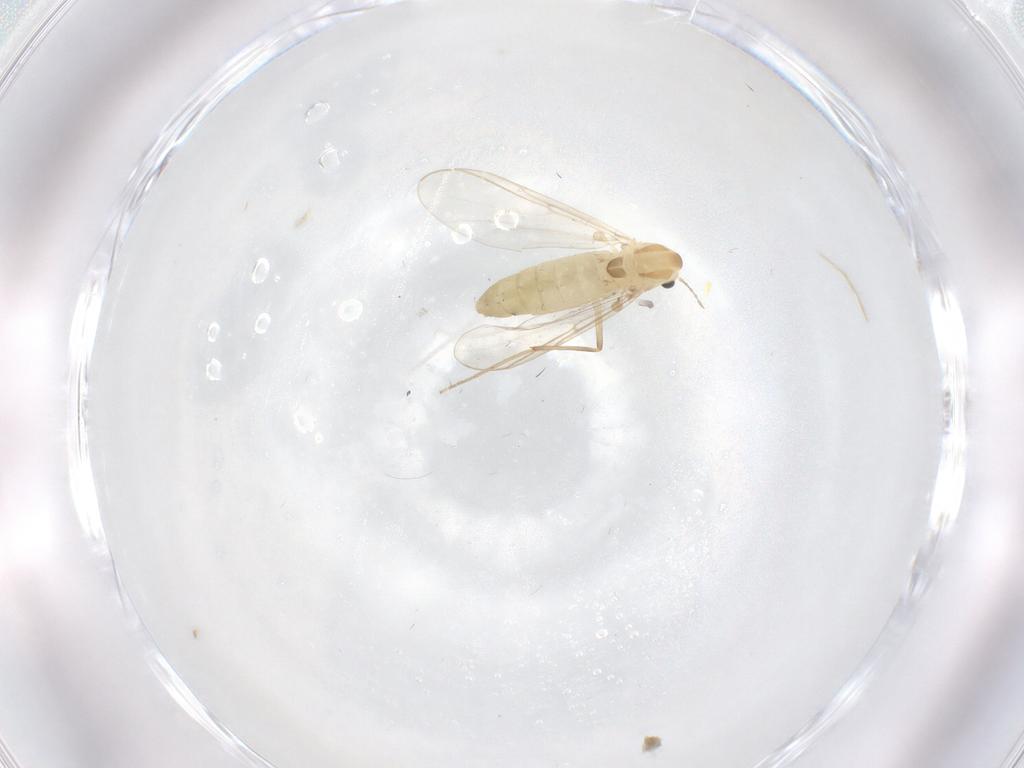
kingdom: Animalia
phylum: Arthropoda
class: Insecta
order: Diptera
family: Chironomidae
